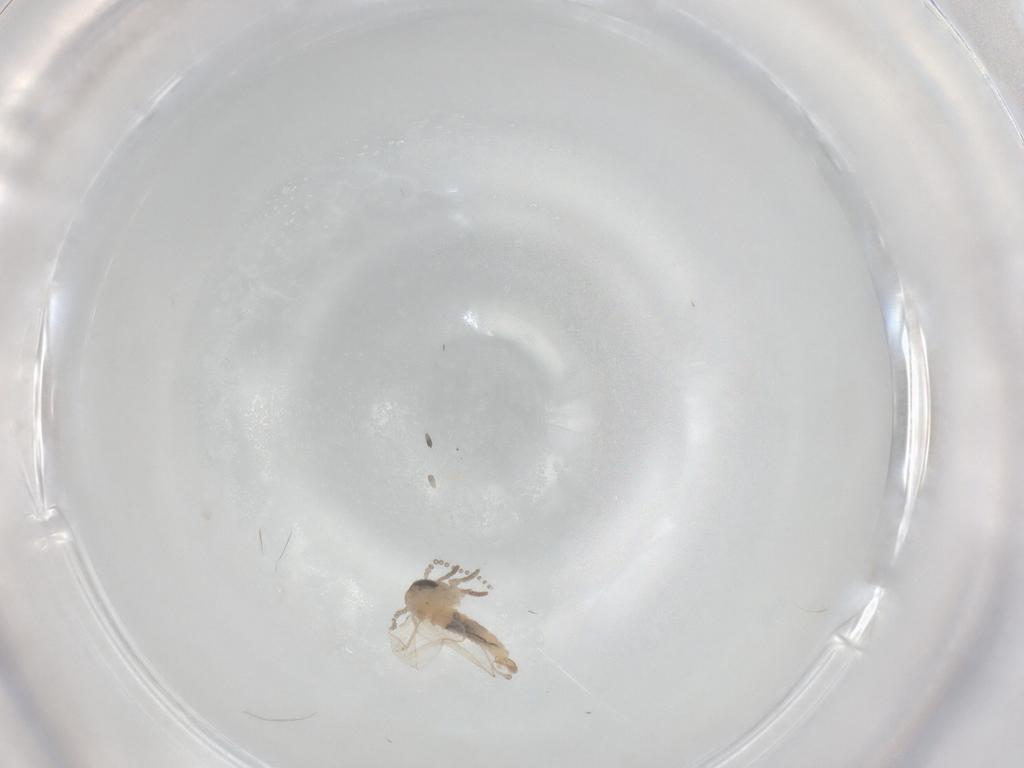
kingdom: Animalia
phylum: Arthropoda
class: Insecta
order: Diptera
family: Psychodidae
